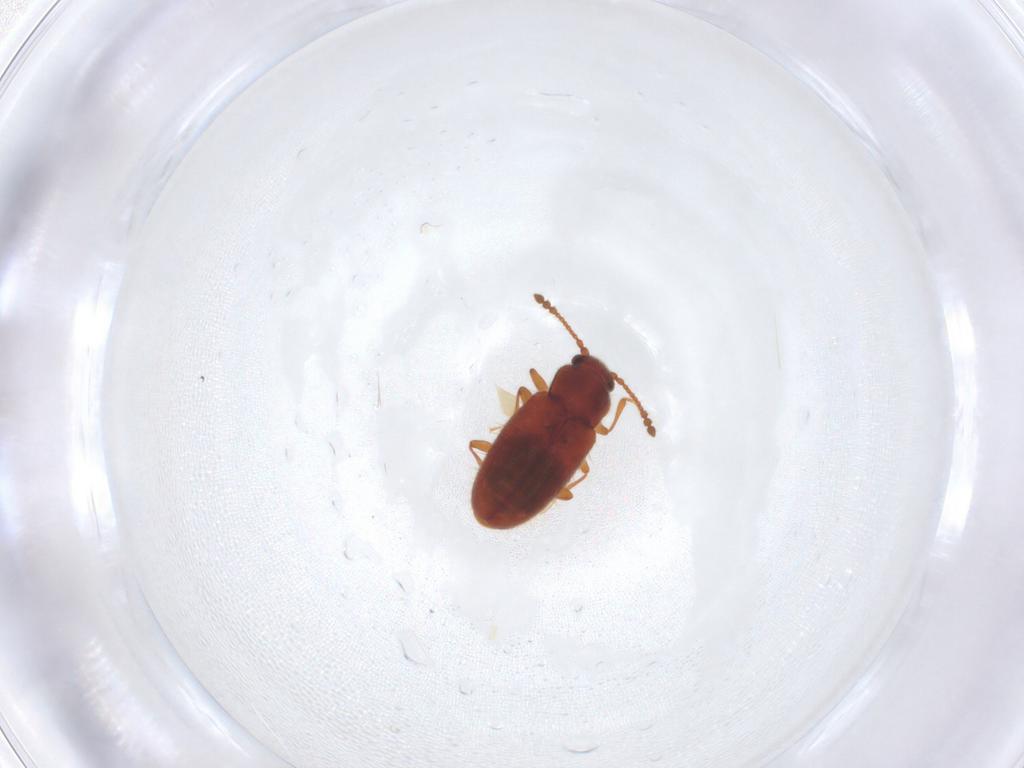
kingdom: Animalia
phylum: Arthropoda
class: Insecta
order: Coleoptera
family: Cryptophagidae
